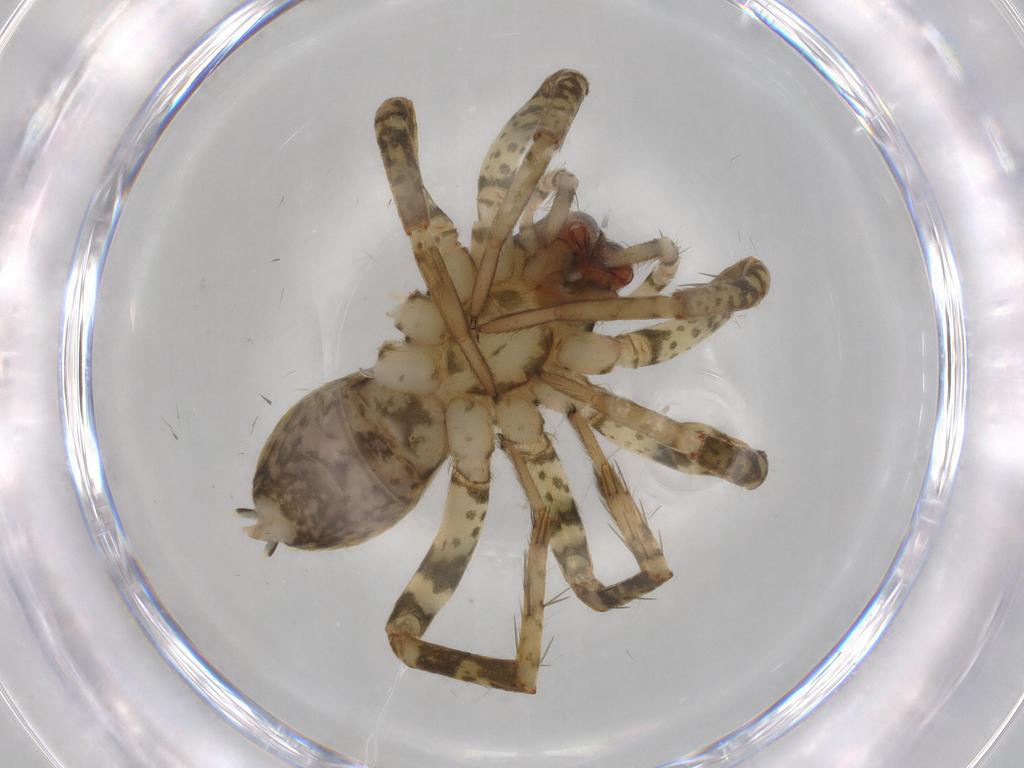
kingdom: Animalia
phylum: Arthropoda
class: Arachnida
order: Araneae
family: Anyphaenidae
